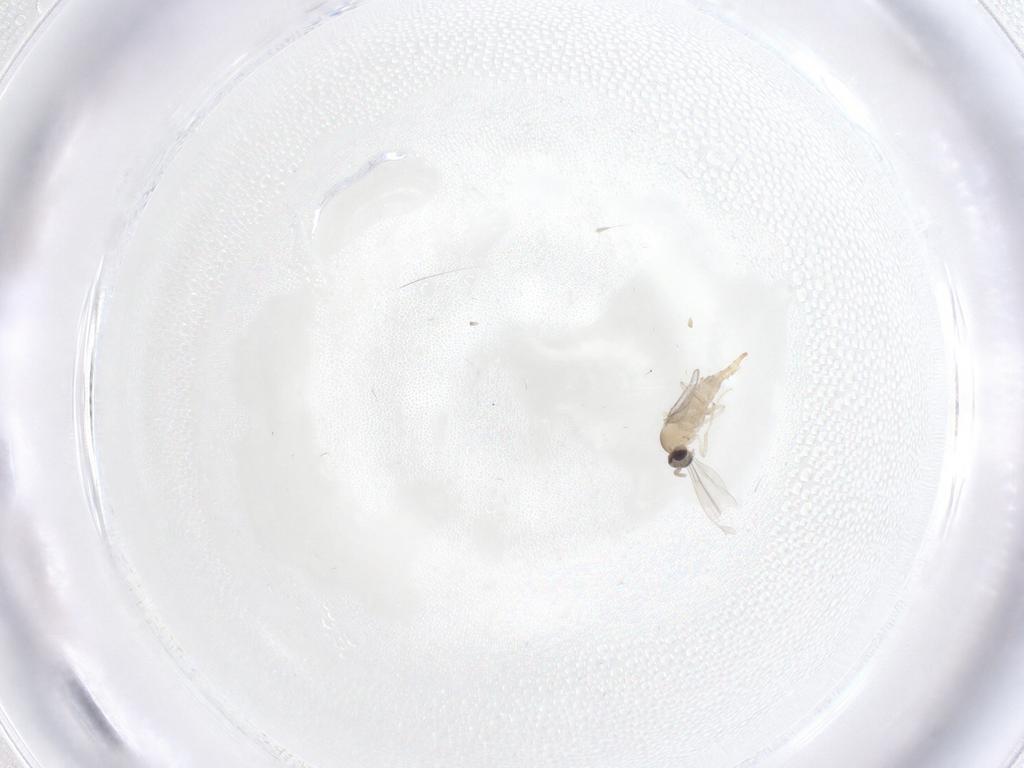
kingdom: Animalia
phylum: Arthropoda
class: Insecta
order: Diptera
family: Cecidomyiidae
